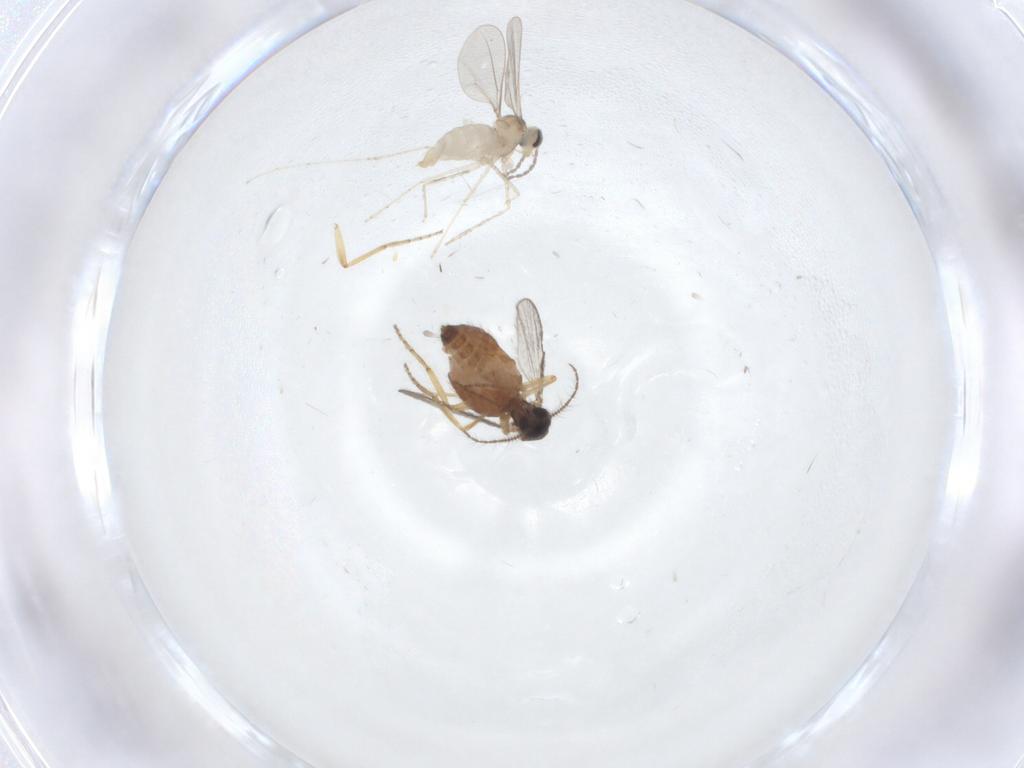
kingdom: Animalia
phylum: Arthropoda
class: Insecta
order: Diptera
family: Cecidomyiidae
